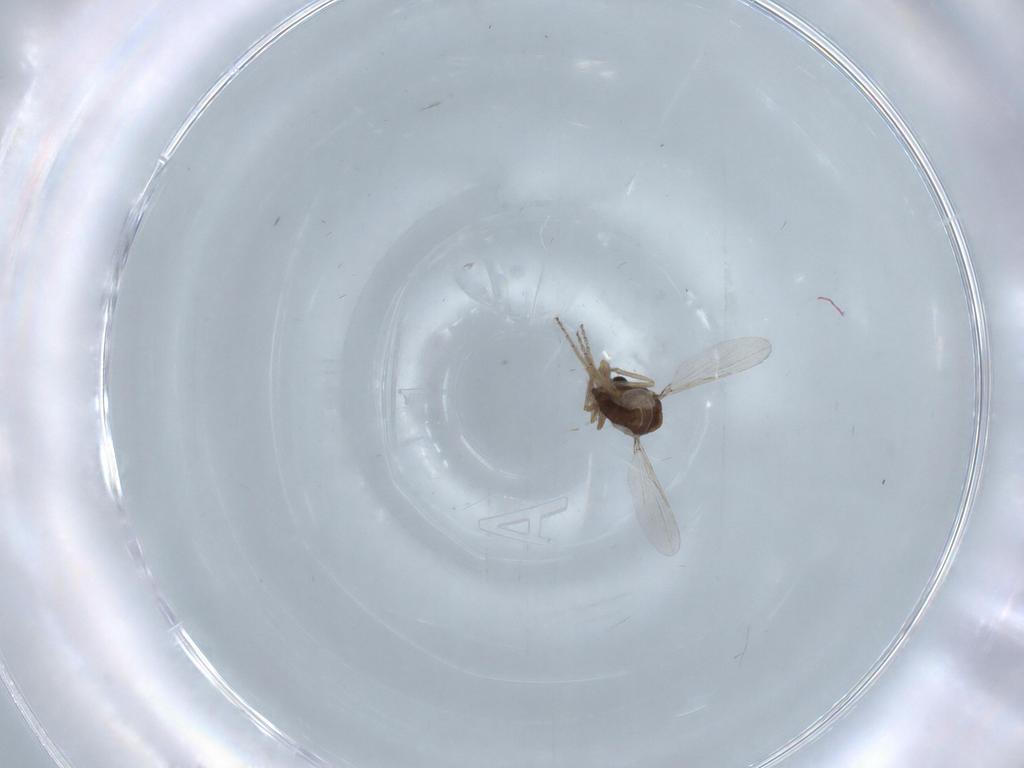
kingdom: Animalia
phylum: Arthropoda
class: Insecta
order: Diptera
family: Ceratopogonidae
